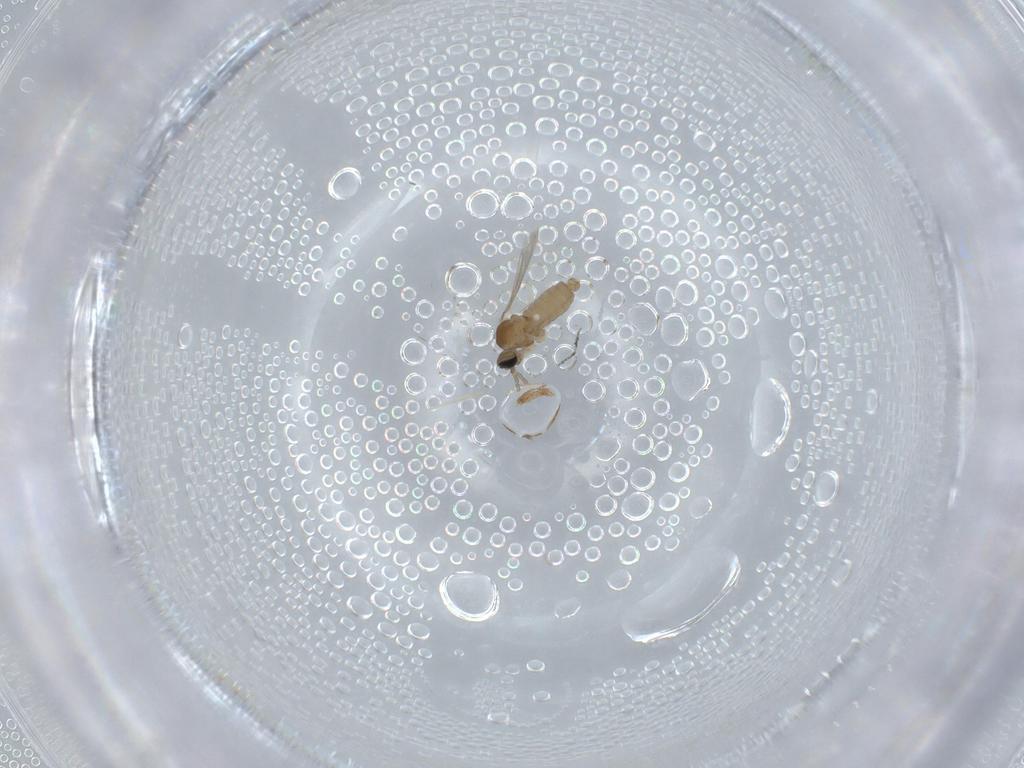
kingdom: Animalia
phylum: Arthropoda
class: Insecta
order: Diptera
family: Cecidomyiidae
